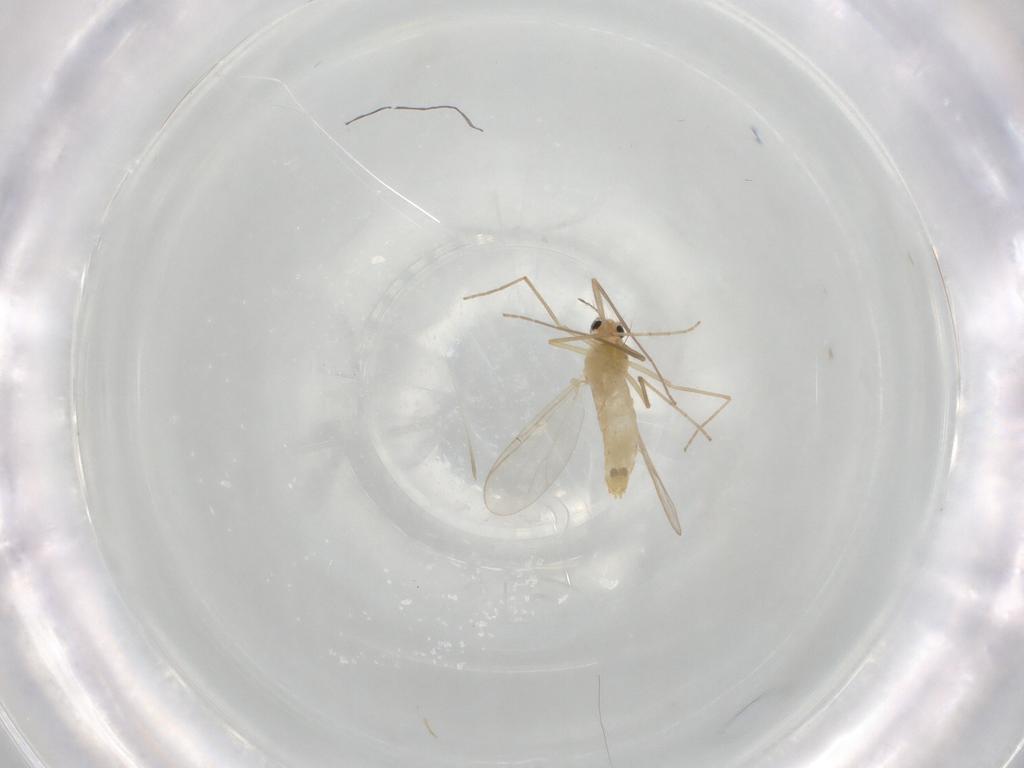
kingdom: Animalia
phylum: Arthropoda
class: Insecta
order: Diptera
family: Chironomidae
